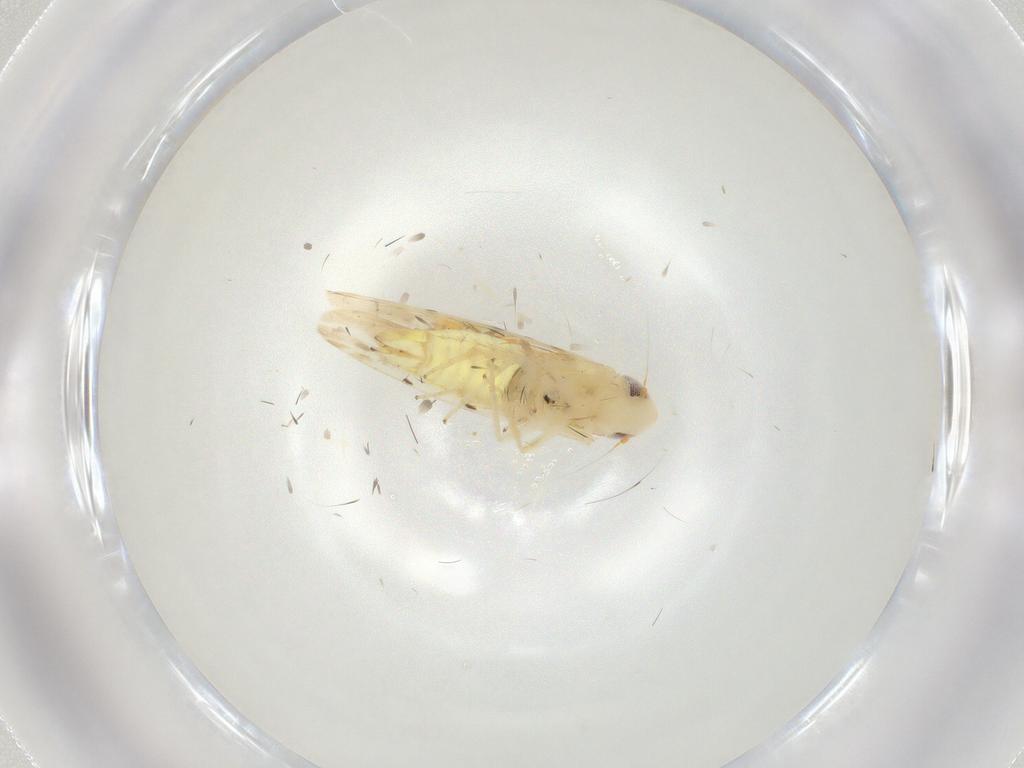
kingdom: Animalia
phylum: Arthropoda
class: Insecta
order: Hemiptera
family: Cicadellidae
